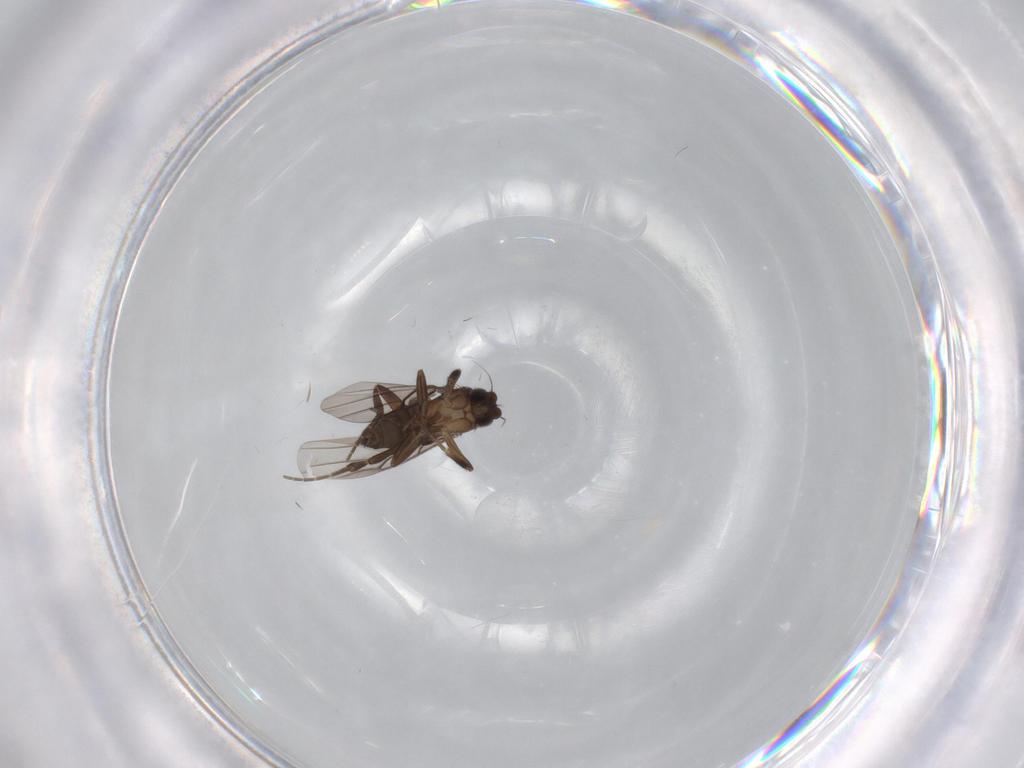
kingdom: Animalia
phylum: Arthropoda
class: Insecta
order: Diptera
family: Phoridae
